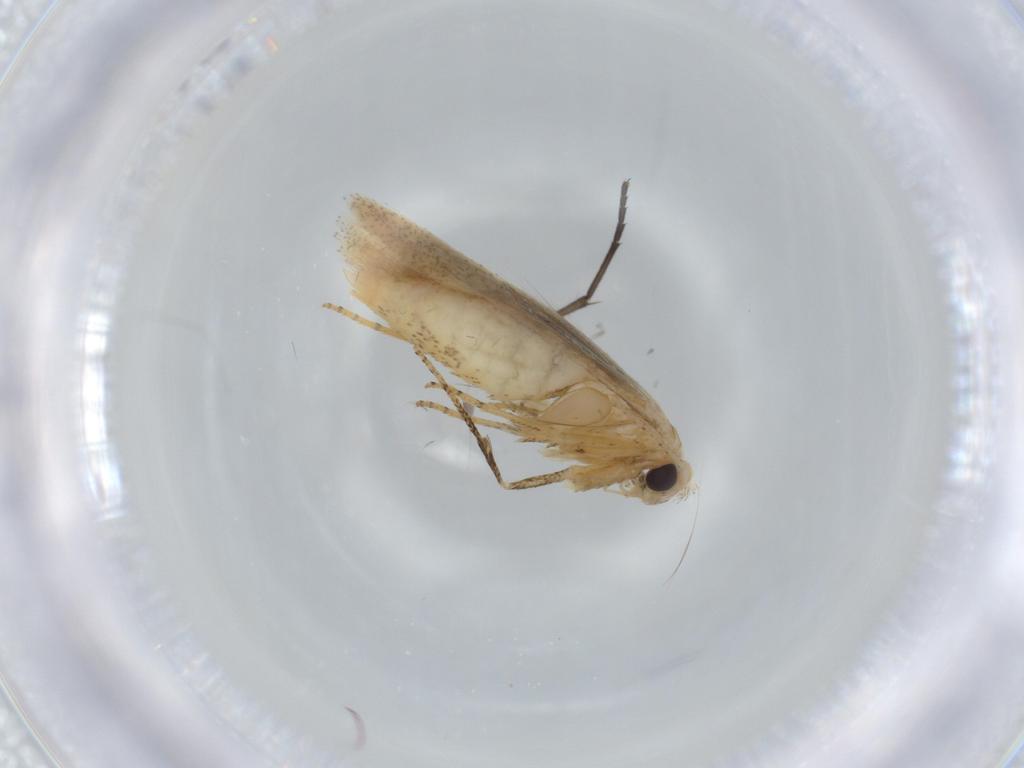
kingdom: Animalia
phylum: Arthropoda
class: Insecta
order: Lepidoptera
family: Bedelliidae
